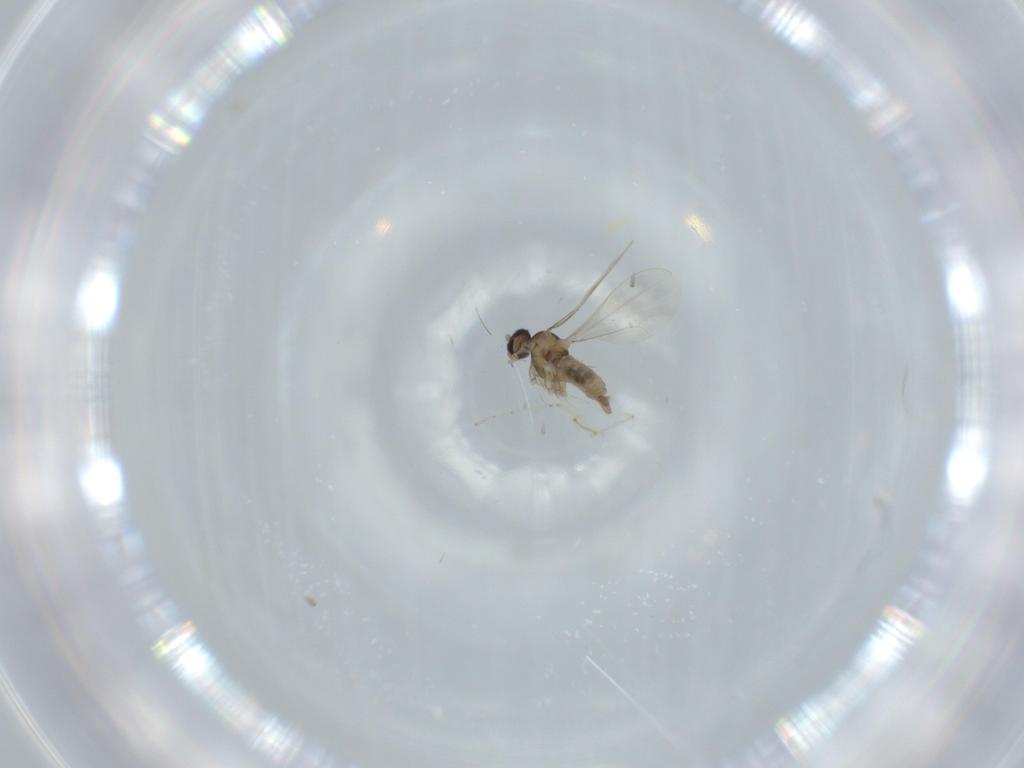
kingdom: Animalia
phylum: Arthropoda
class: Insecta
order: Diptera
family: Cecidomyiidae
